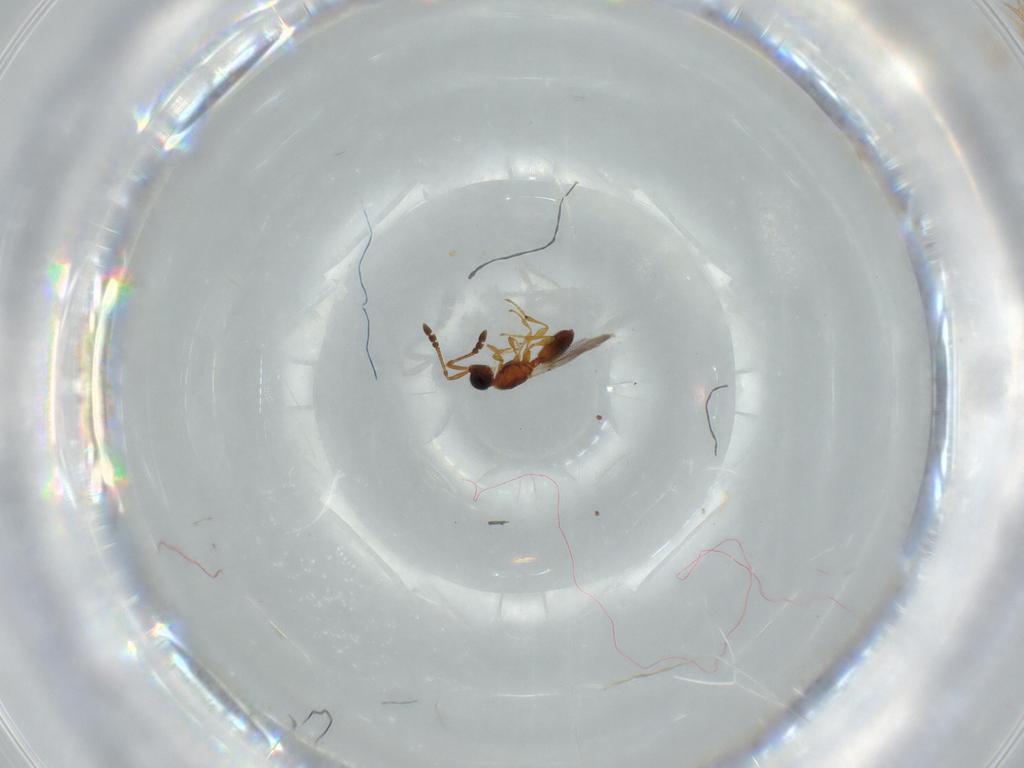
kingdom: Animalia
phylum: Arthropoda
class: Insecta
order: Hymenoptera
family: Diapriidae
